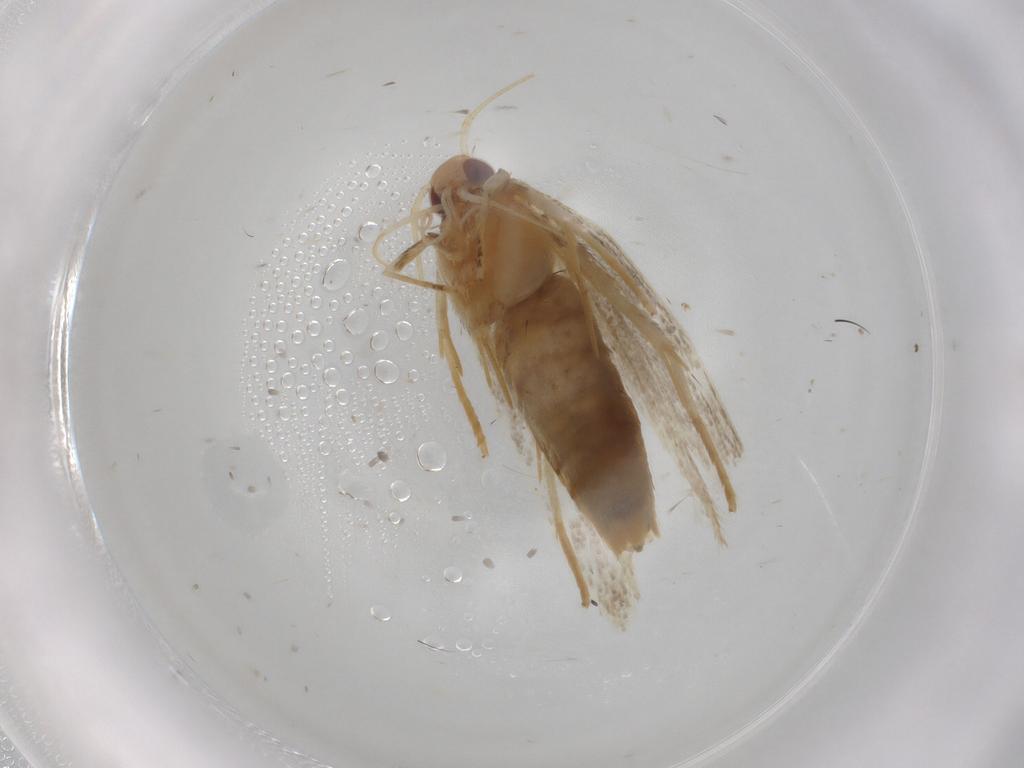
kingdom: Animalia
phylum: Arthropoda
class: Insecta
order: Lepidoptera
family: Cosmopterigidae
